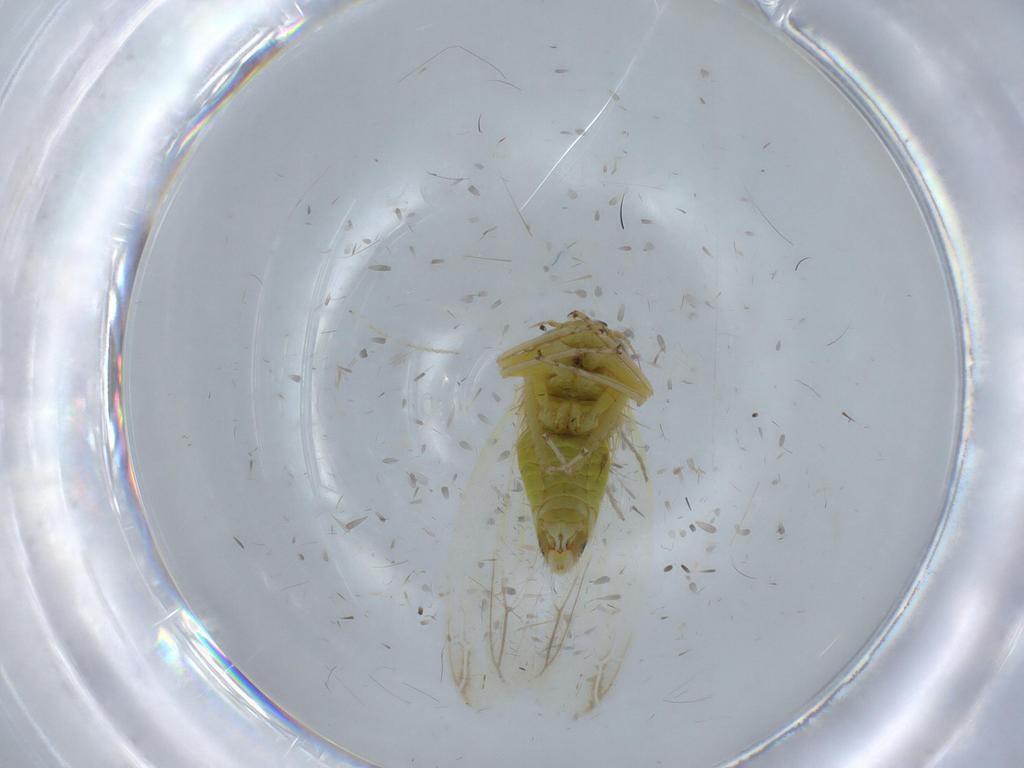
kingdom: Animalia
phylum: Arthropoda
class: Insecta
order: Hemiptera
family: Cicadellidae
